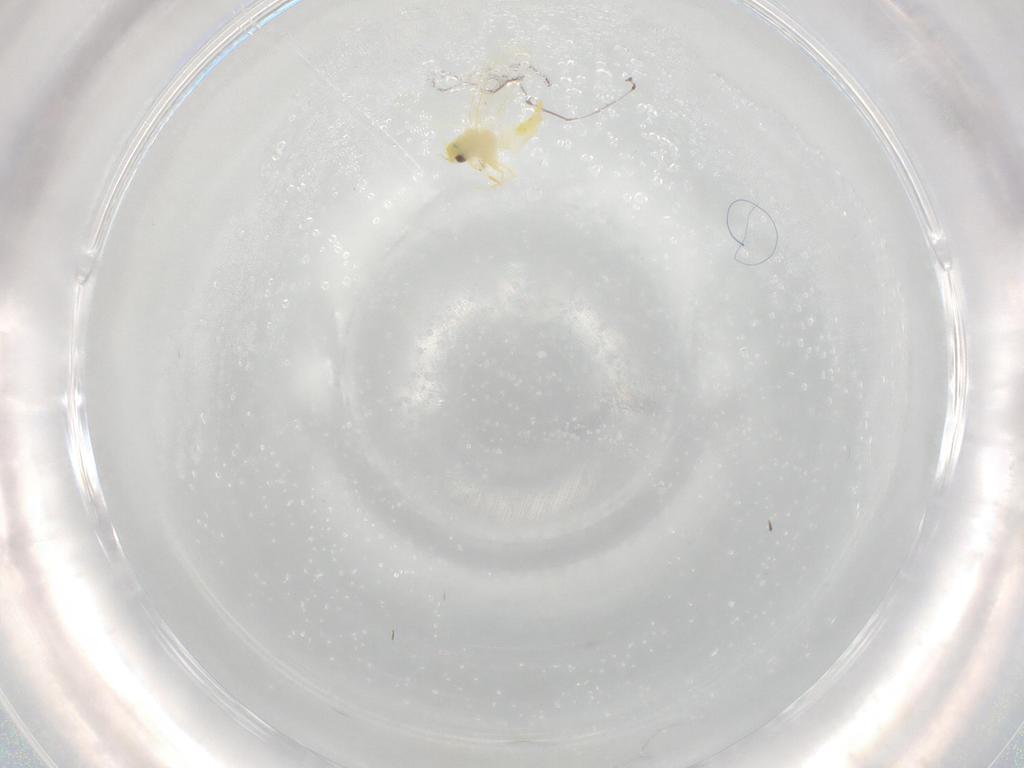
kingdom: Animalia
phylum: Arthropoda
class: Insecta
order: Hemiptera
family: Aleyrodidae
